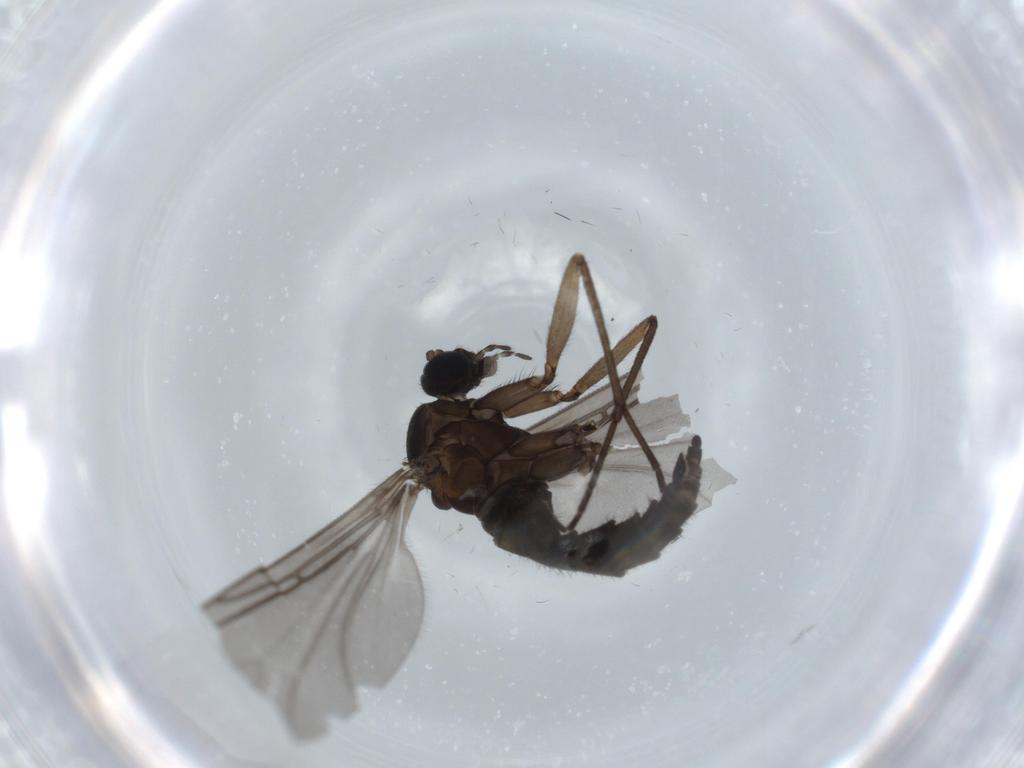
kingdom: Animalia
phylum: Arthropoda
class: Insecta
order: Diptera
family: Sciaridae
